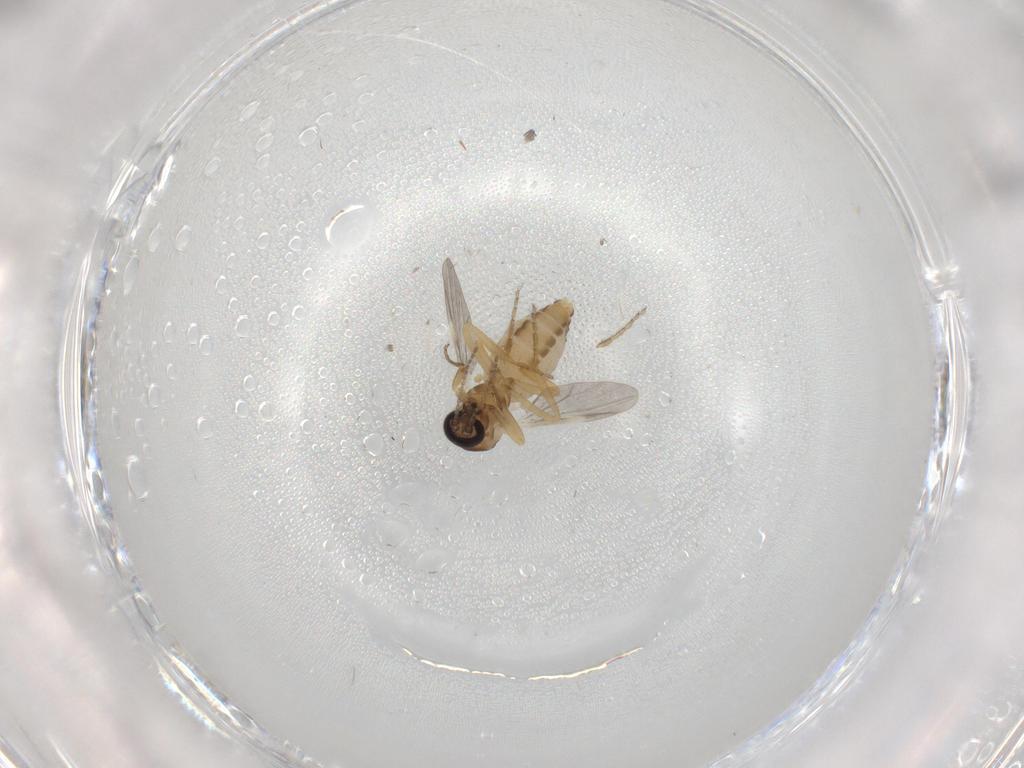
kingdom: Animalia
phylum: Arthropoda
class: Insecta
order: Diptera
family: Ceratopogonidae
